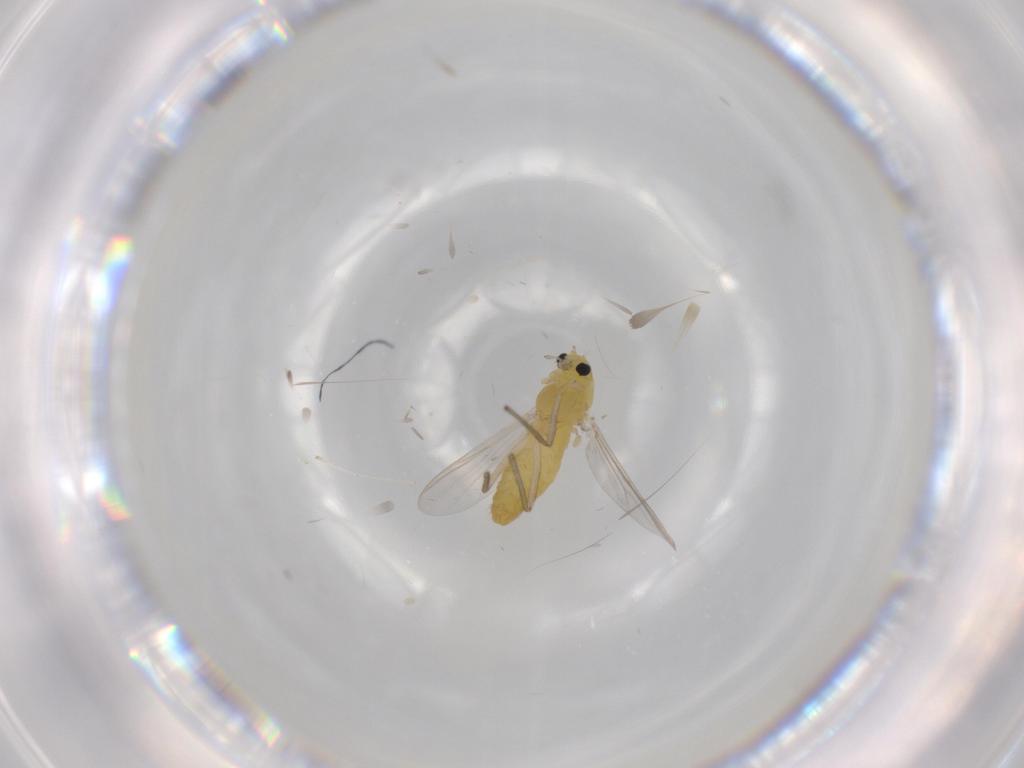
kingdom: Animalia
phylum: Arthropoda
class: Insecta
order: Diptera
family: Chironomidae
